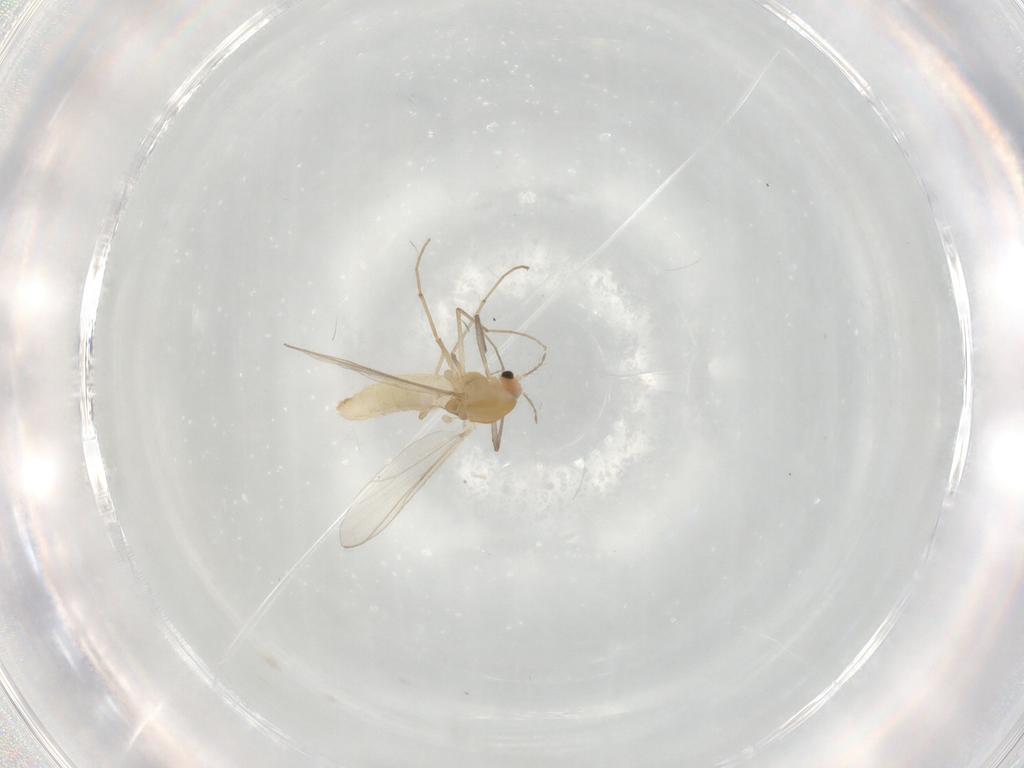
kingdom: Animalia
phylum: Arthropoda
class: Insecta
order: Diptera
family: Chironomidae
